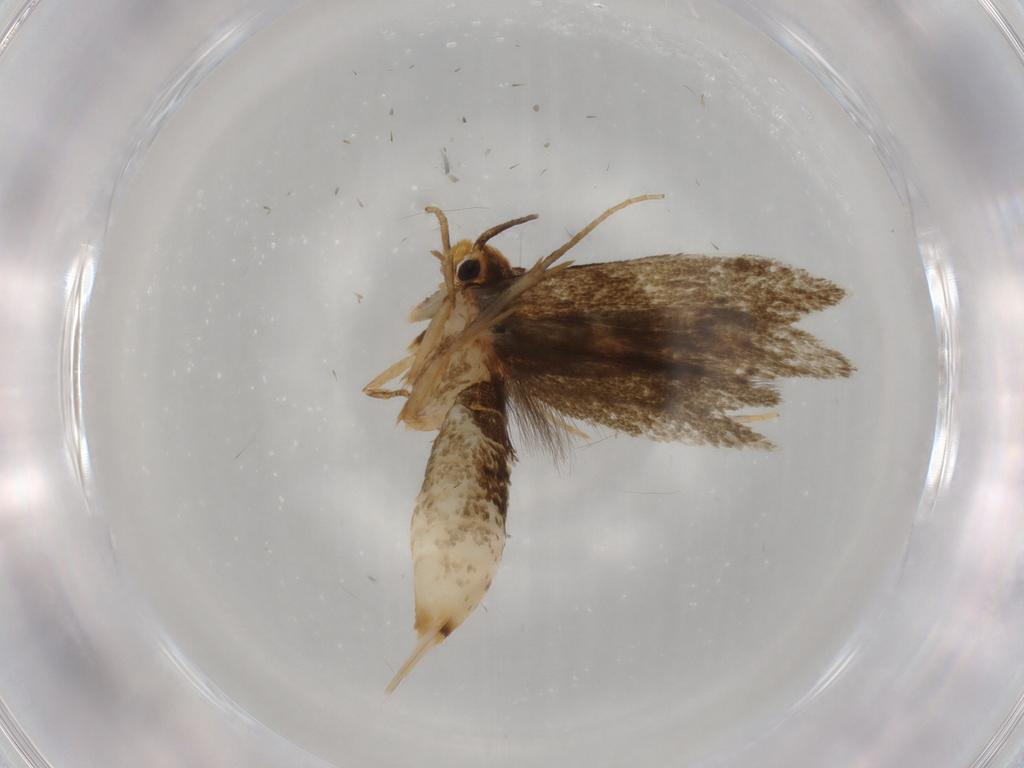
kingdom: Animalia
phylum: Arthropoda
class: Insecta
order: Lepidoptera
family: Tineidae
